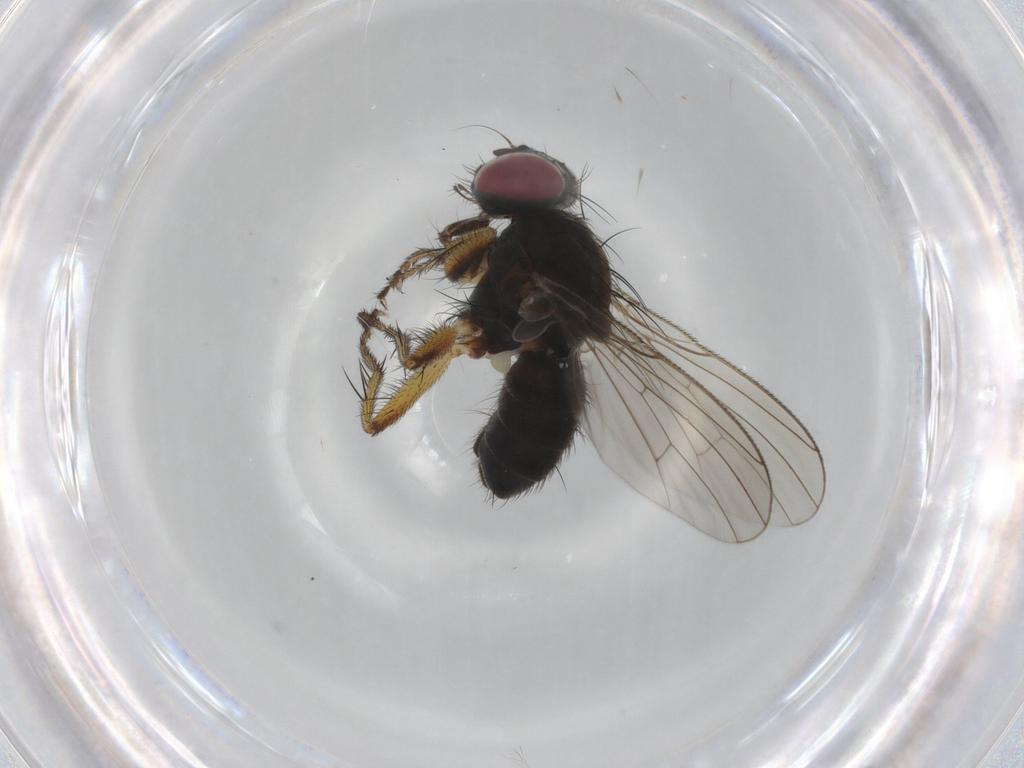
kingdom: Animalia
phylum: Arthropoda
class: Insecta
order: Diptera
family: Muscidae
